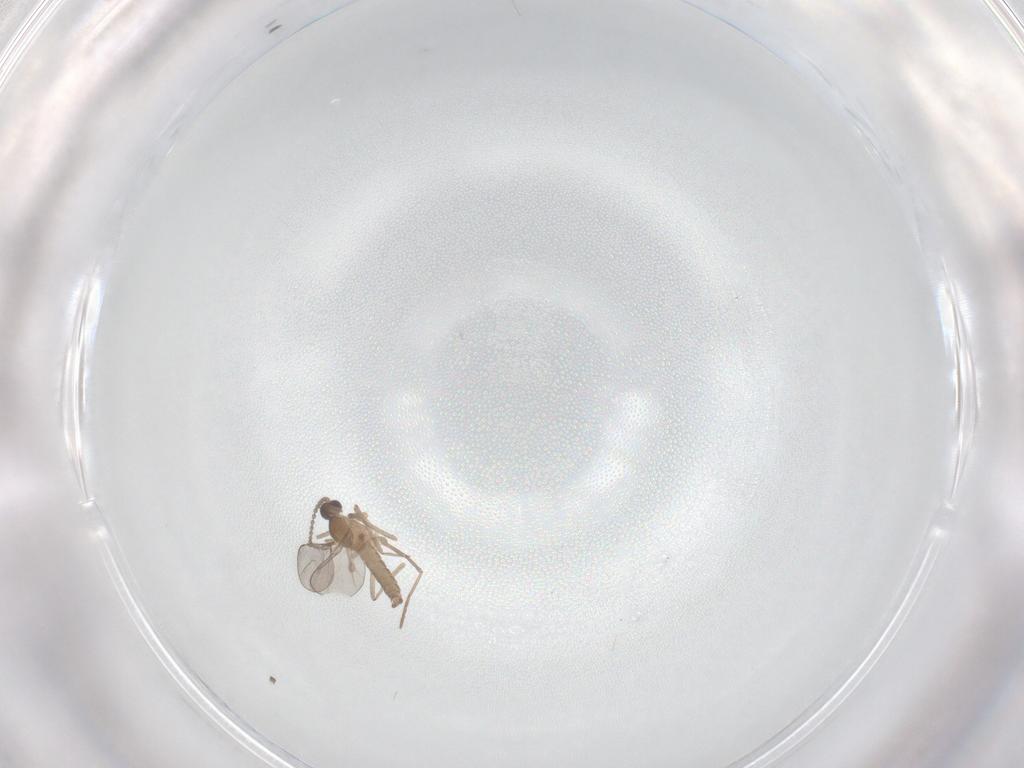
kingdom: Animalia
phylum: Arthropoda
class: Insecta
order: Diptera
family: Cecidomyiidae
